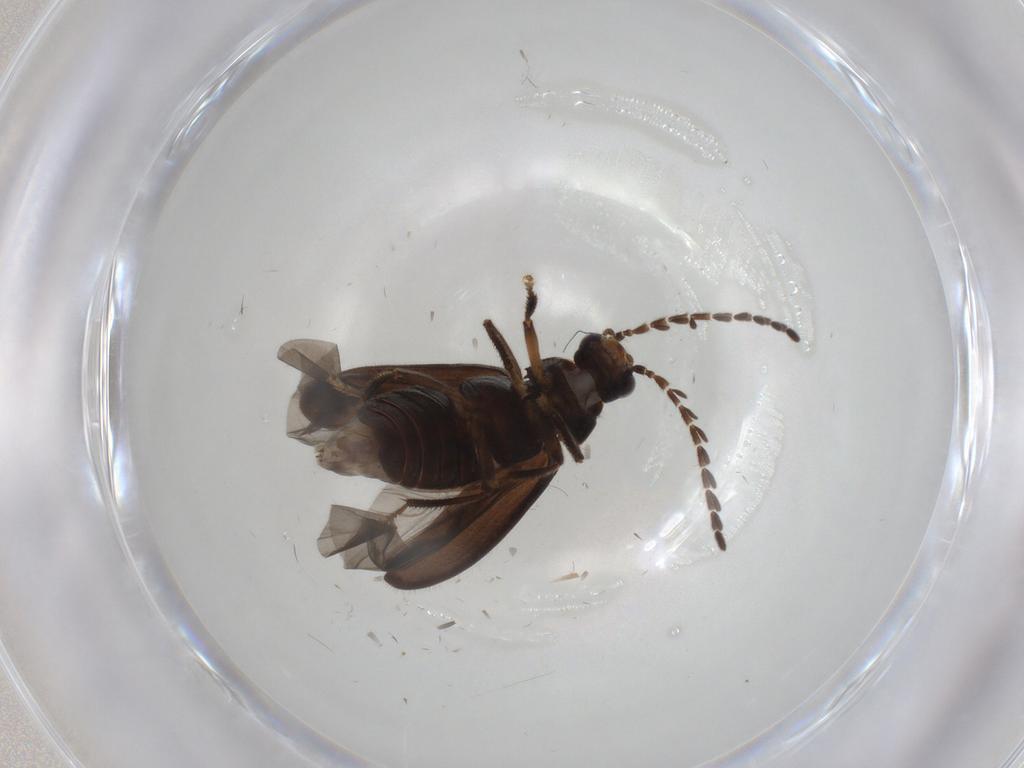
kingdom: Animalia
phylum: Arthropoda
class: Insecta
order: Coleoptera
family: Ptilodactylidae
